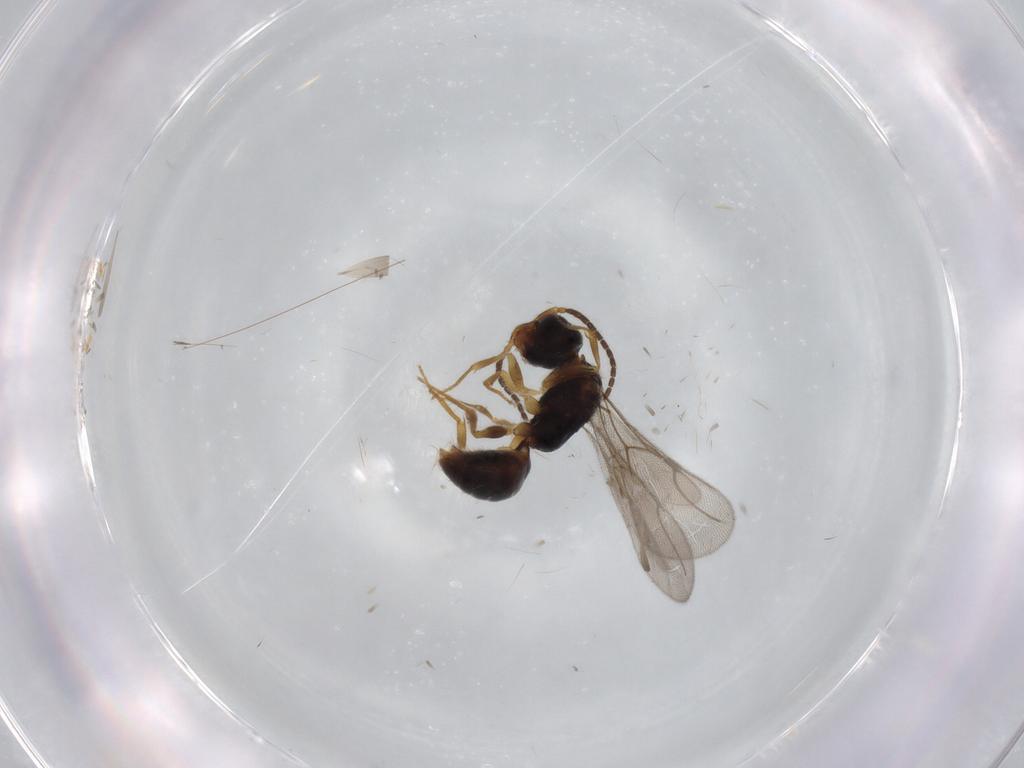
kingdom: Animalia
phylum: Arthropoda
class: Insecta
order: Hymenoptera
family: Bethylidae
